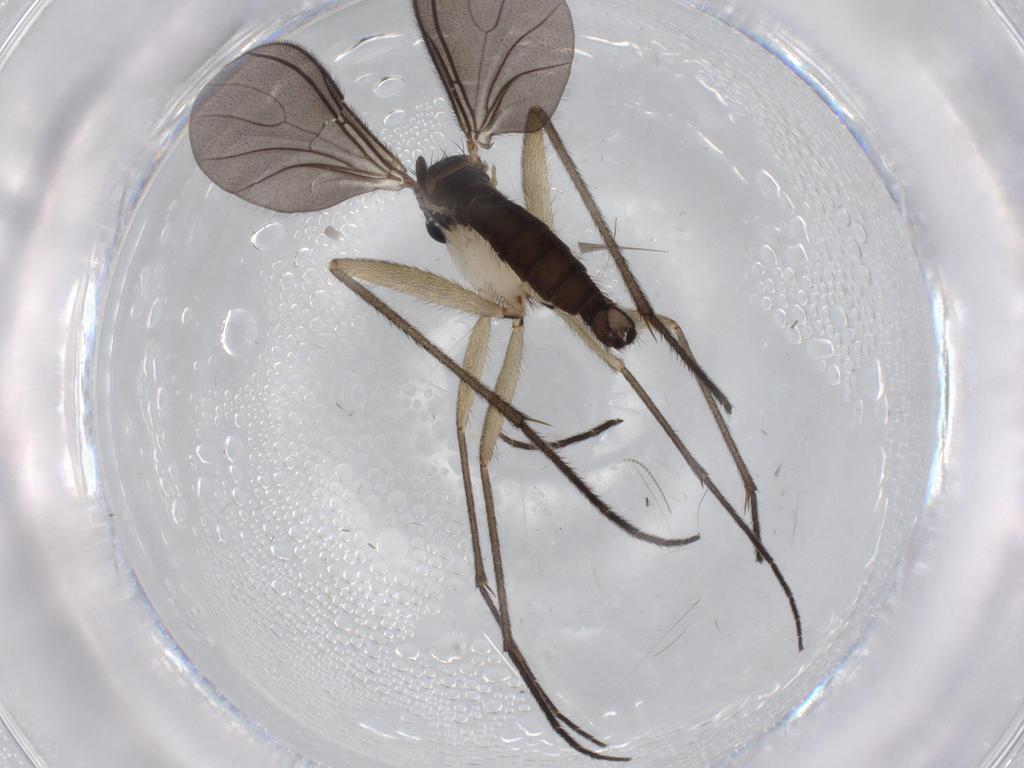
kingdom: Animalia
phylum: Arthropoda
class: Insecta
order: Diptera
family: Sciaridae
